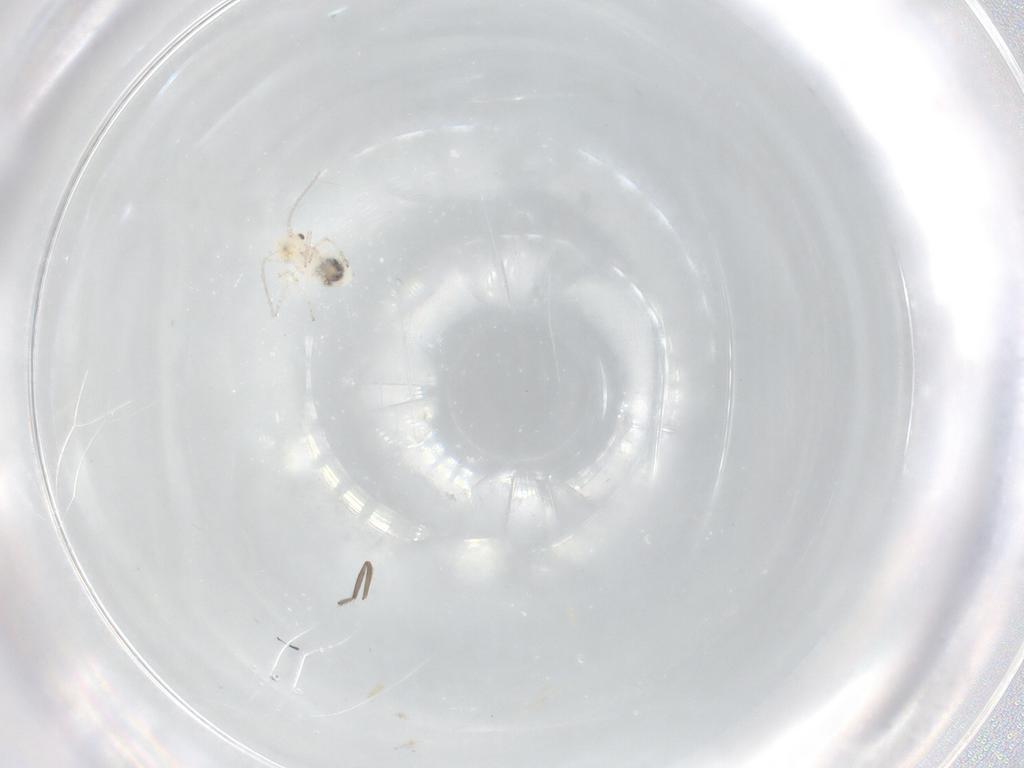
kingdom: Animalia
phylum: Arthropoda
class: Insecta
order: Psocodea
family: Caeciliusidae
